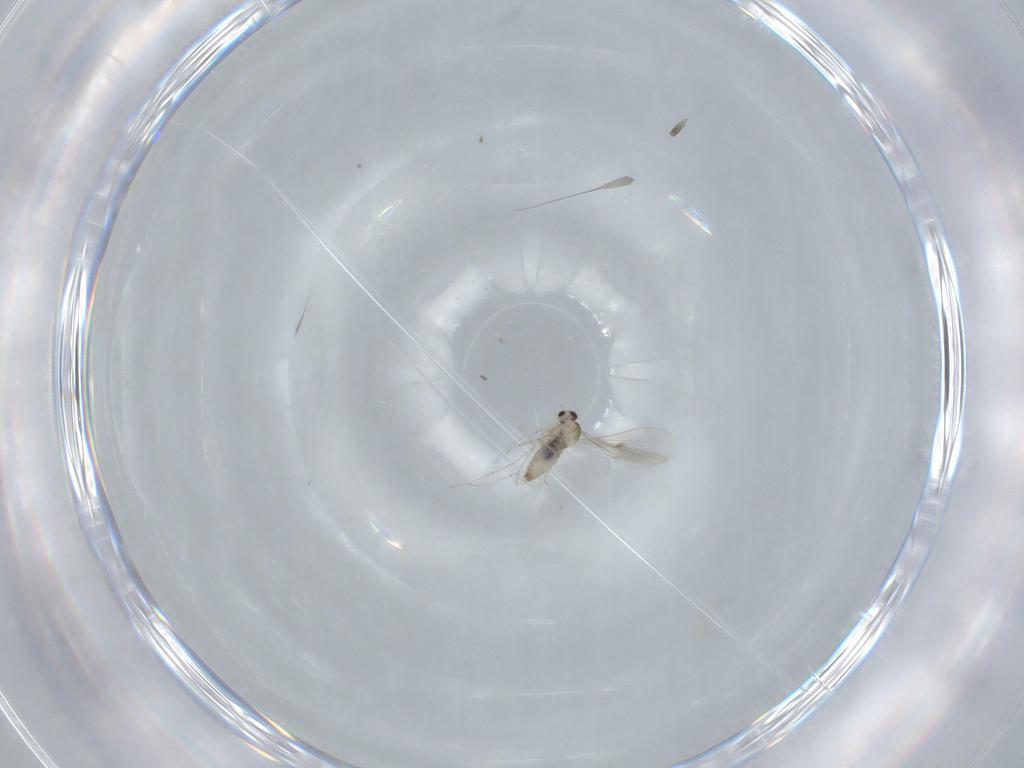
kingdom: Animalia
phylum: Arthropoda
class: Insecta
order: Diptera
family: Cecidomyiidae
